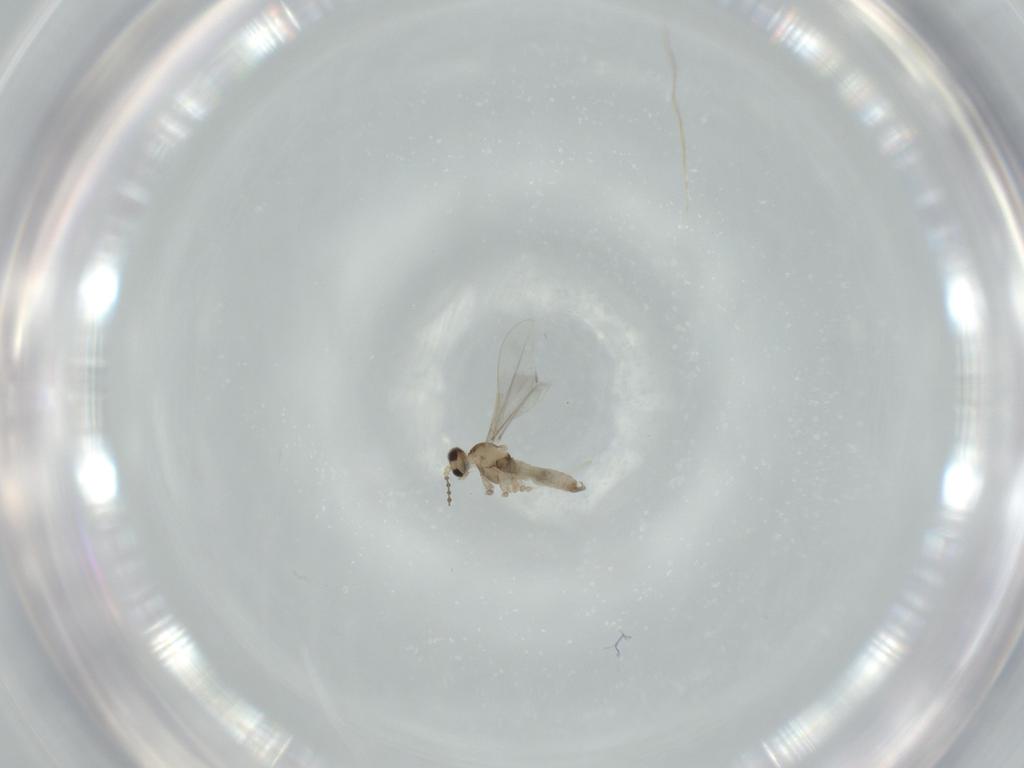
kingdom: Animalia
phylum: Arthropoda
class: Insecta
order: Diptera
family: Cecidomyiidae
